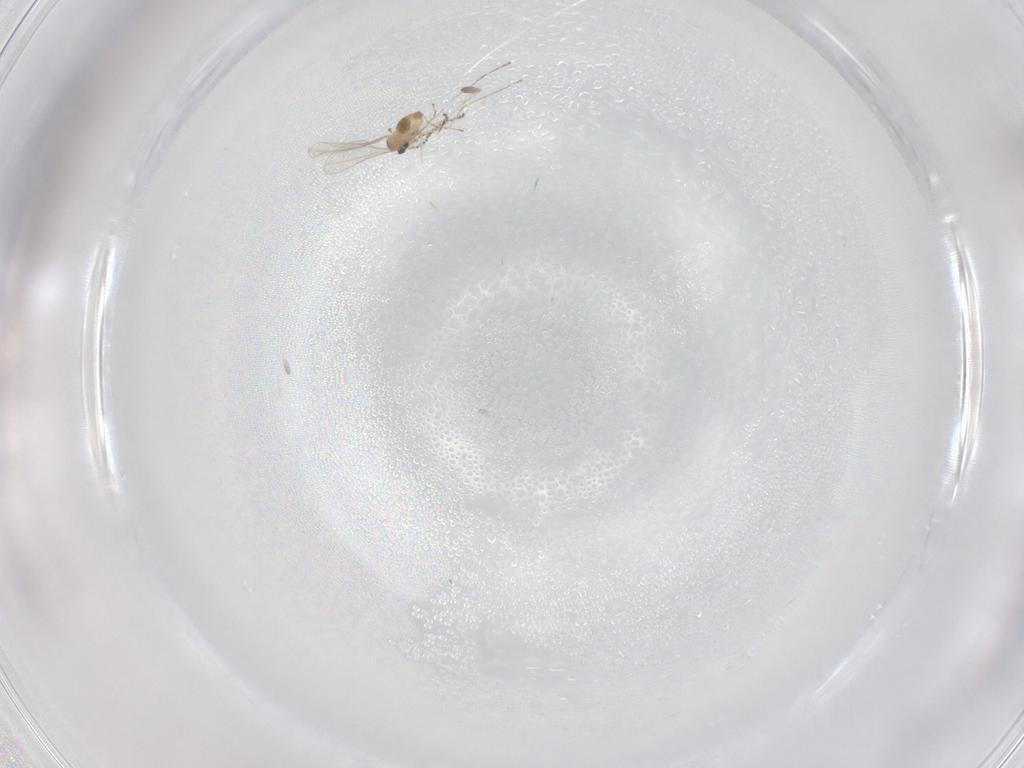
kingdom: Animalia
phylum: Arthropoda
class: Insecta
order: Diptera
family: Cecidomyiidae
